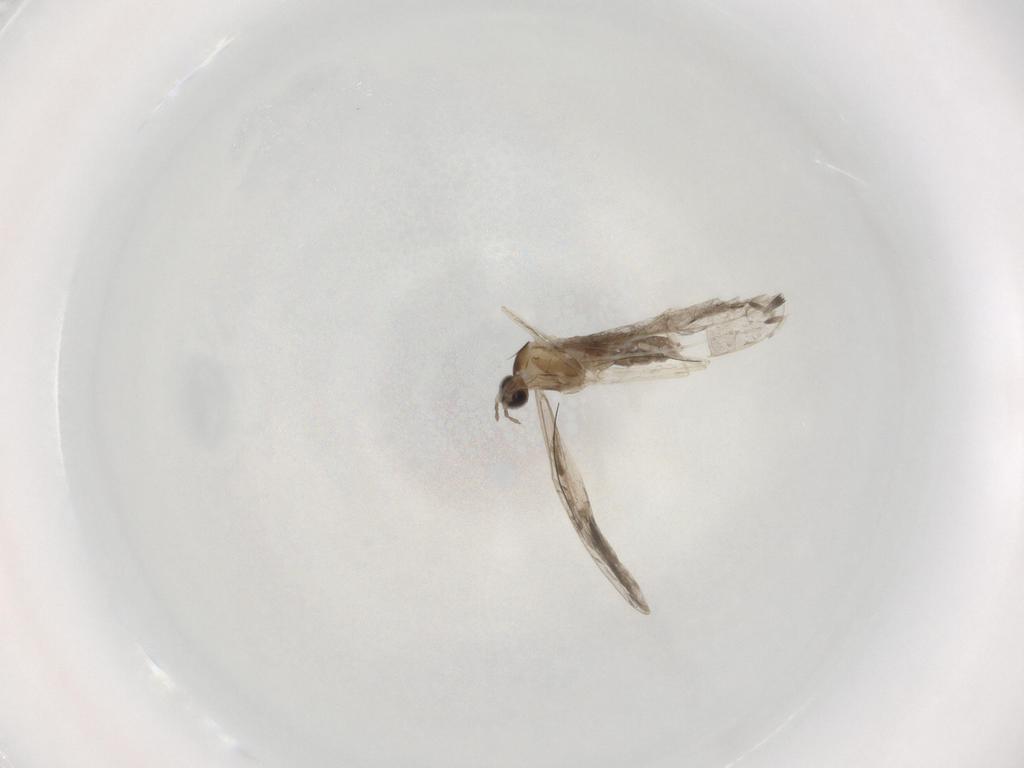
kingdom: Animalia
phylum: Arthropoda
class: Insecta
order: Diptera
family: Cecidomyiidae
